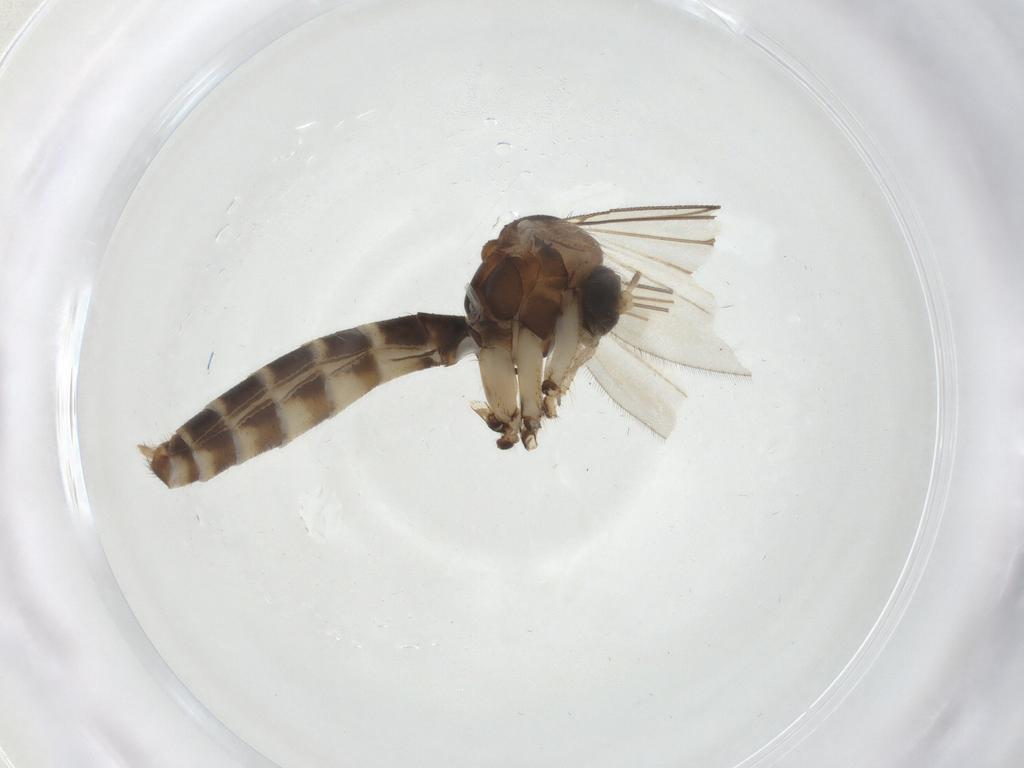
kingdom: Animalia
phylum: Arthropoda
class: Insecta
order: Diptera
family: Mycetophilidae
